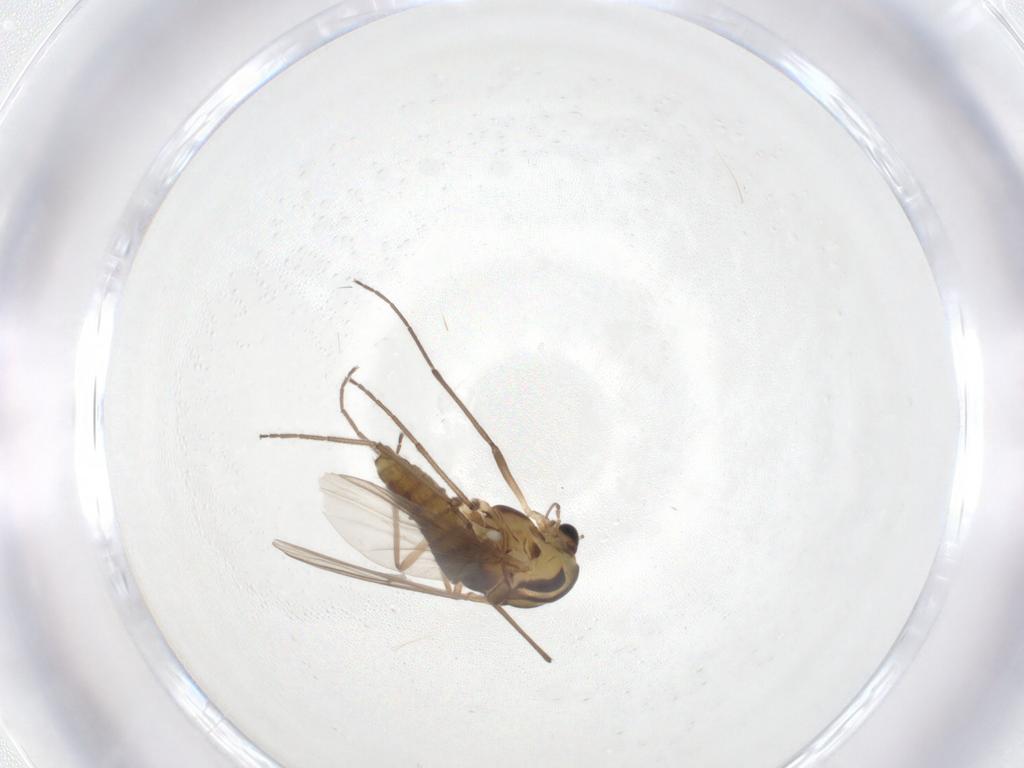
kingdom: Animalia
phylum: Arthropoda
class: Insecta
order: Diptera
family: Chironomidae
